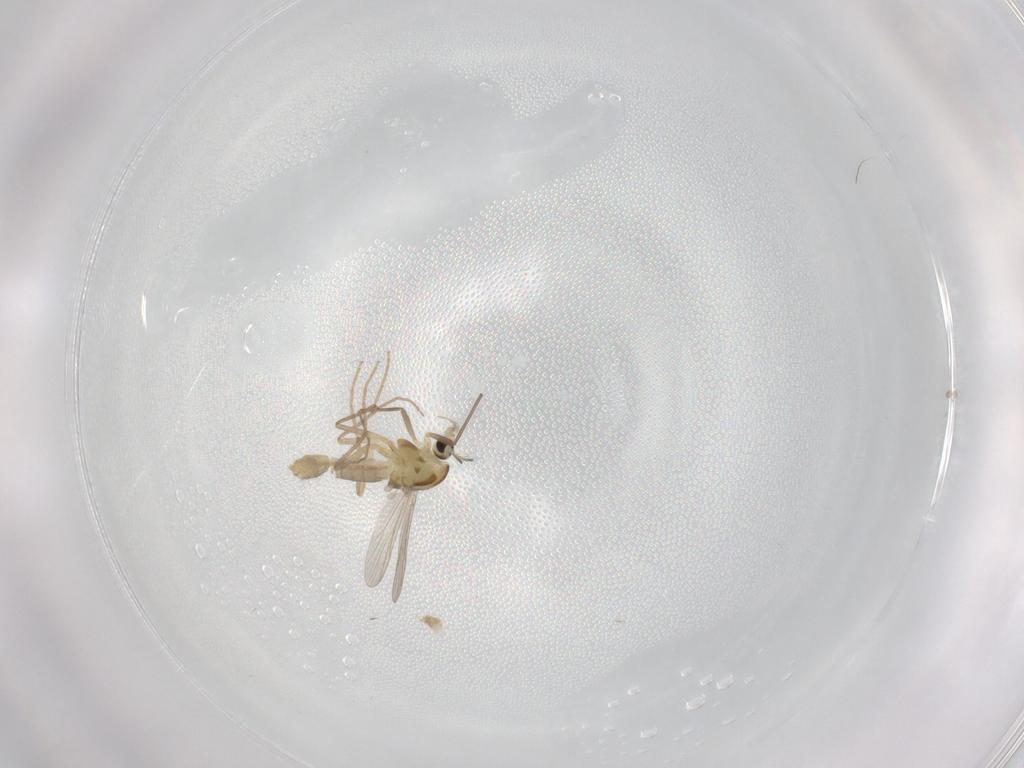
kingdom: Animalia
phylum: Arthropoda
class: Insecta
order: Diptera
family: Chironomidae
